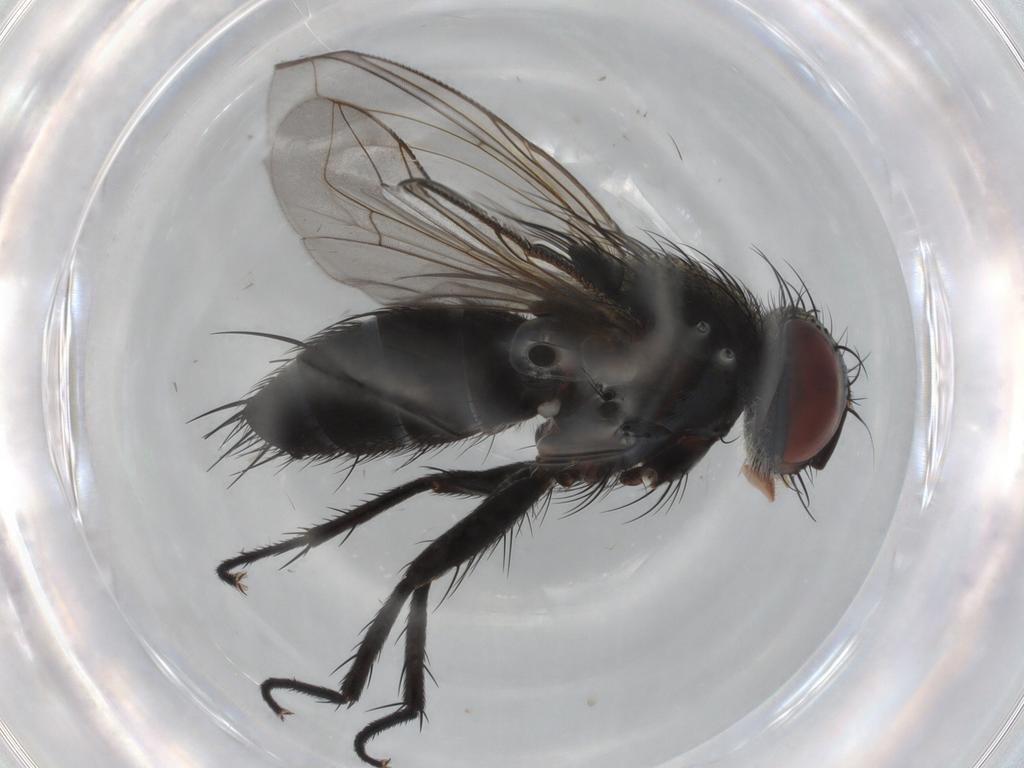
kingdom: Animalia
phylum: Arthropoda
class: Insecta
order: Diptera
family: Tachinidae
